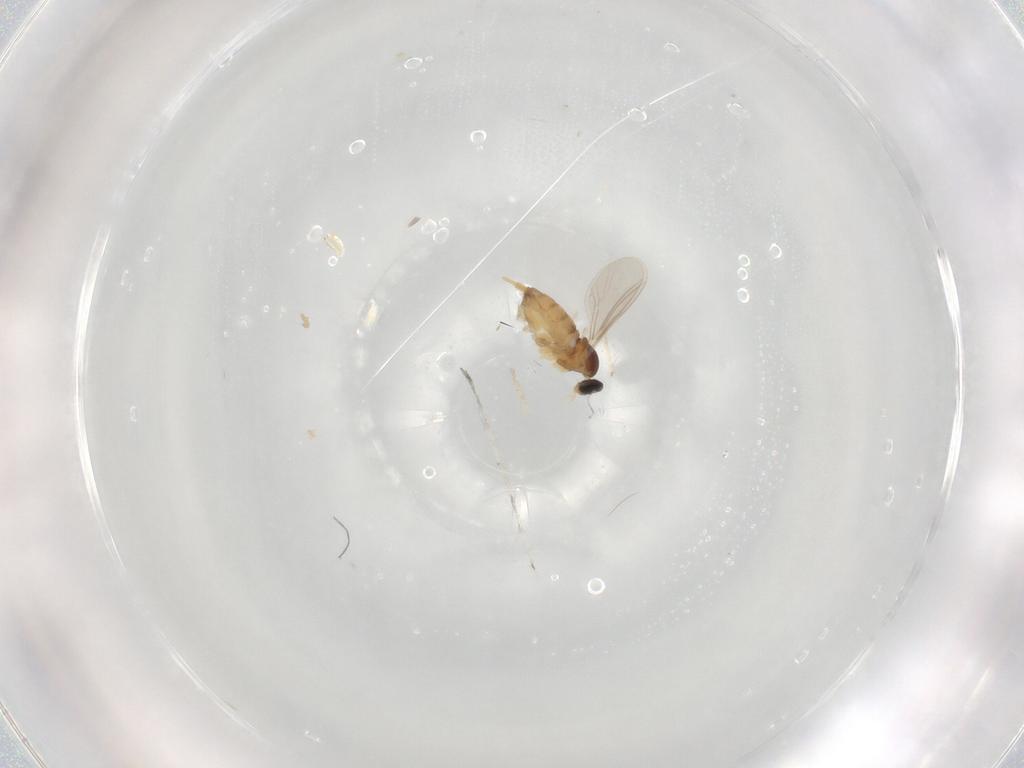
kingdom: Animalia
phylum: Arthropoda
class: Insecta
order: Diptera
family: Cecidomyiidae
